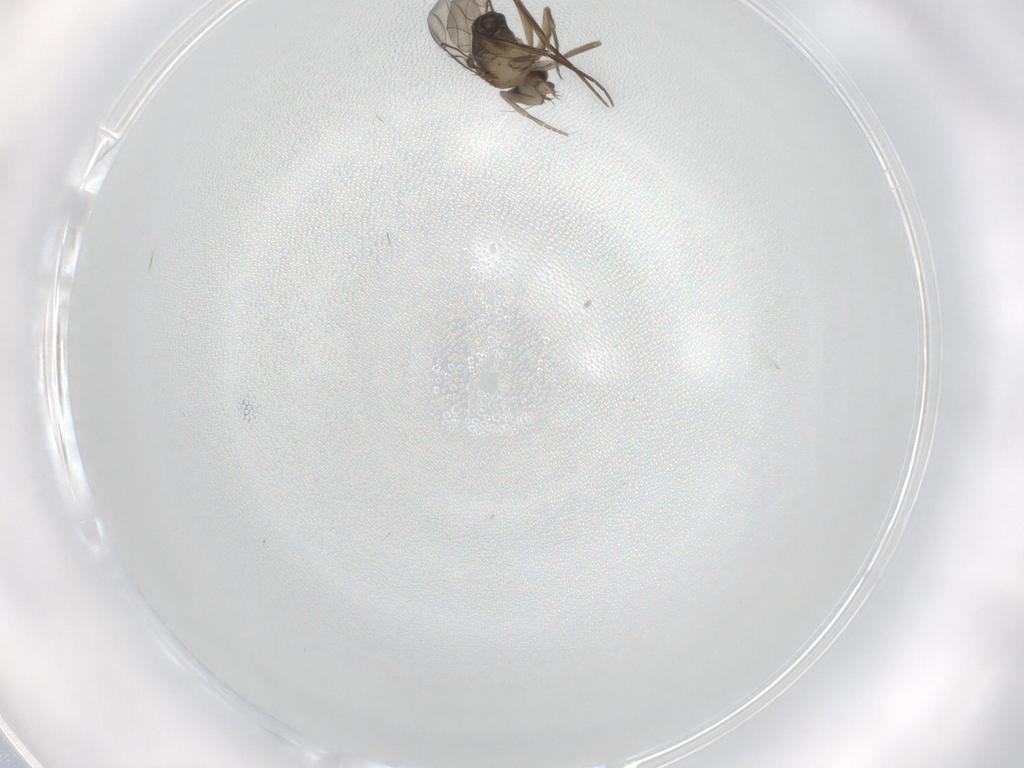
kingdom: Animalia
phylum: Arthropoda
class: Insecta
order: Diptera
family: Phoridae
